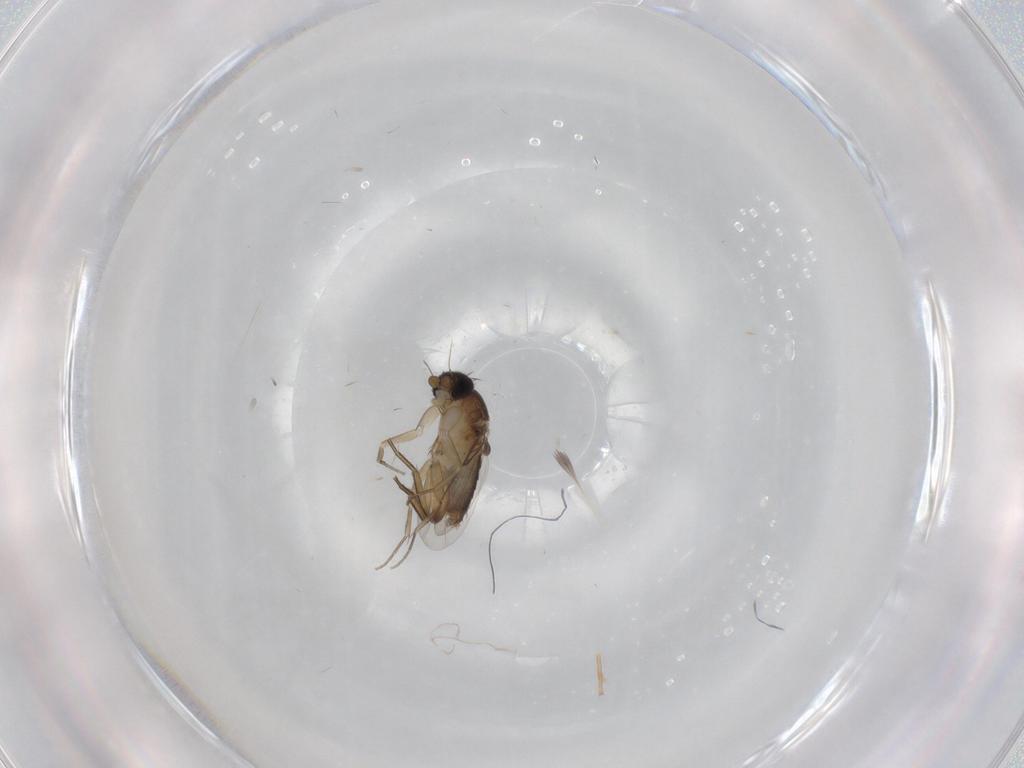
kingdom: Animalia
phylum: Arthropoda
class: Insecta
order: Diptera
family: Phoridae
